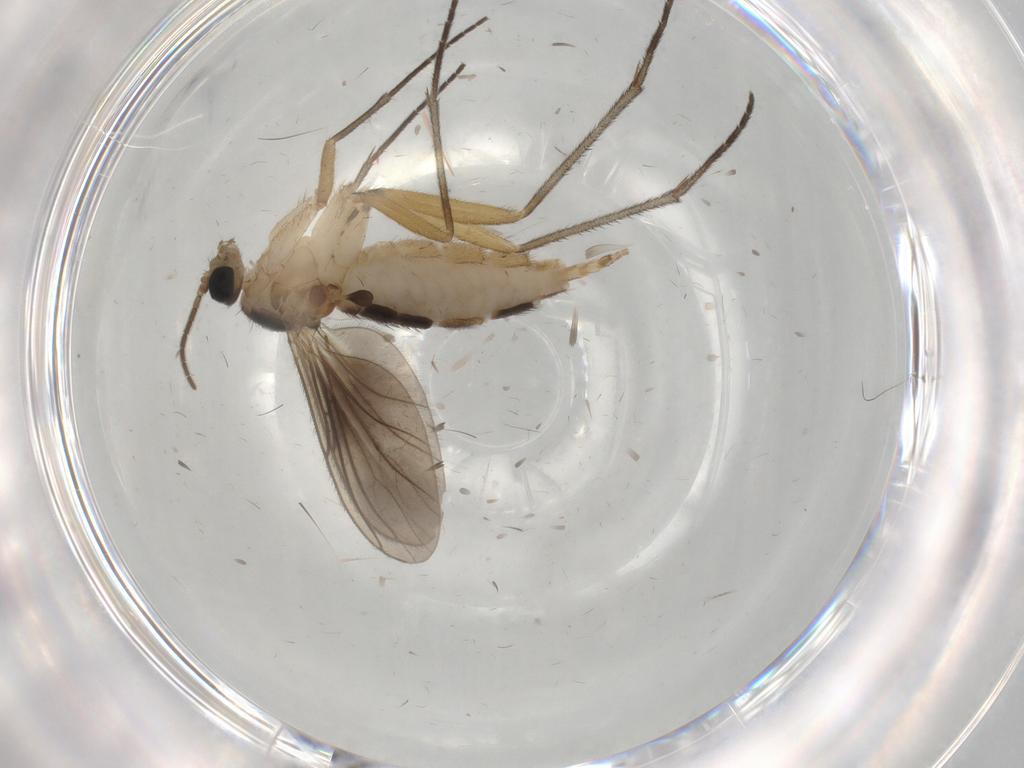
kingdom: Animalia
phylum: Arthropoda
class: Insecta
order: Diptera
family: Sciaridae
